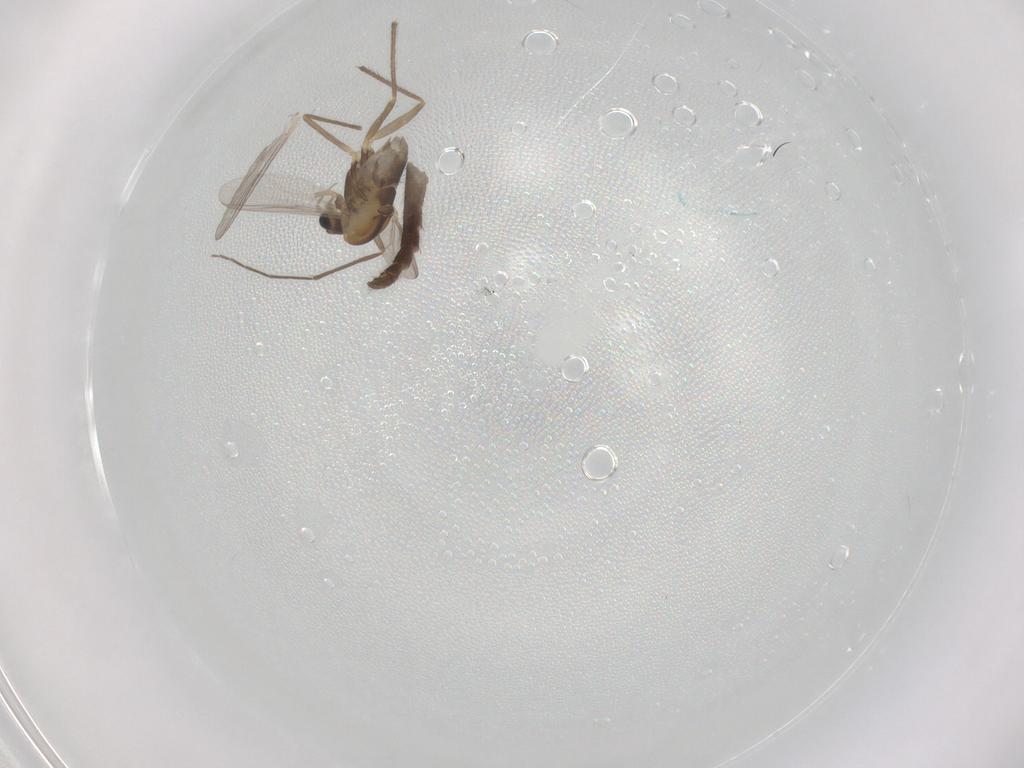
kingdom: Animalia
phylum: Arthropoda
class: Insecta
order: Diptera
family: Chironomidae
